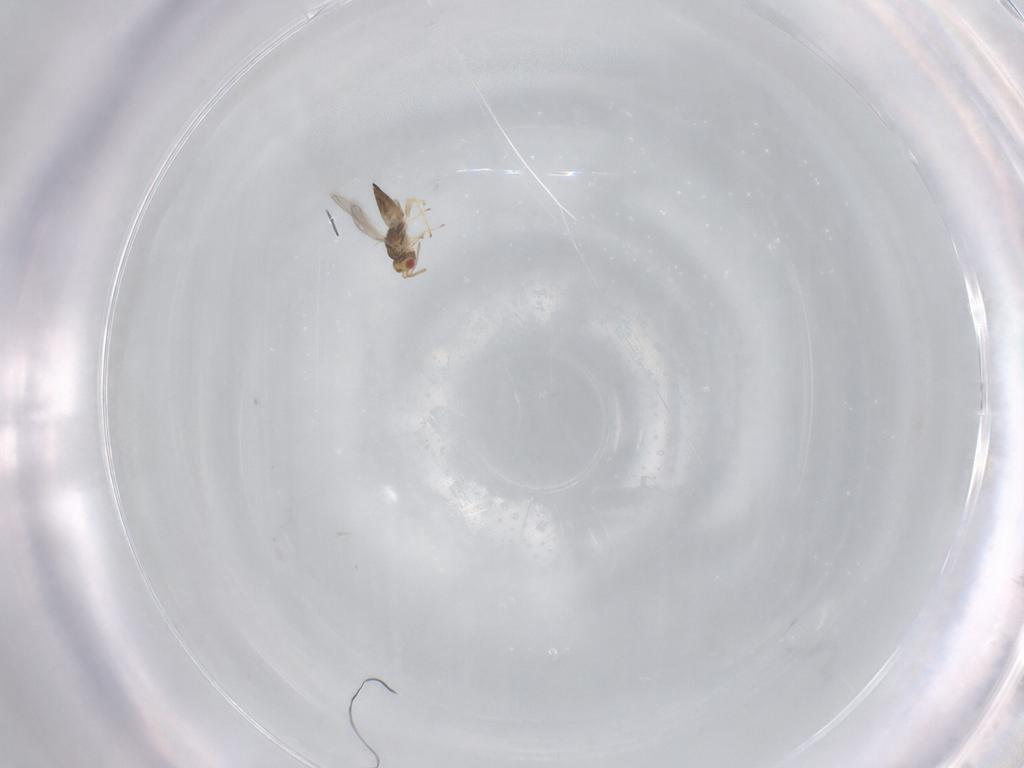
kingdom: Animalia
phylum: Arthropoda
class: Insecta
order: Hymenoptera
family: Eulophidae
